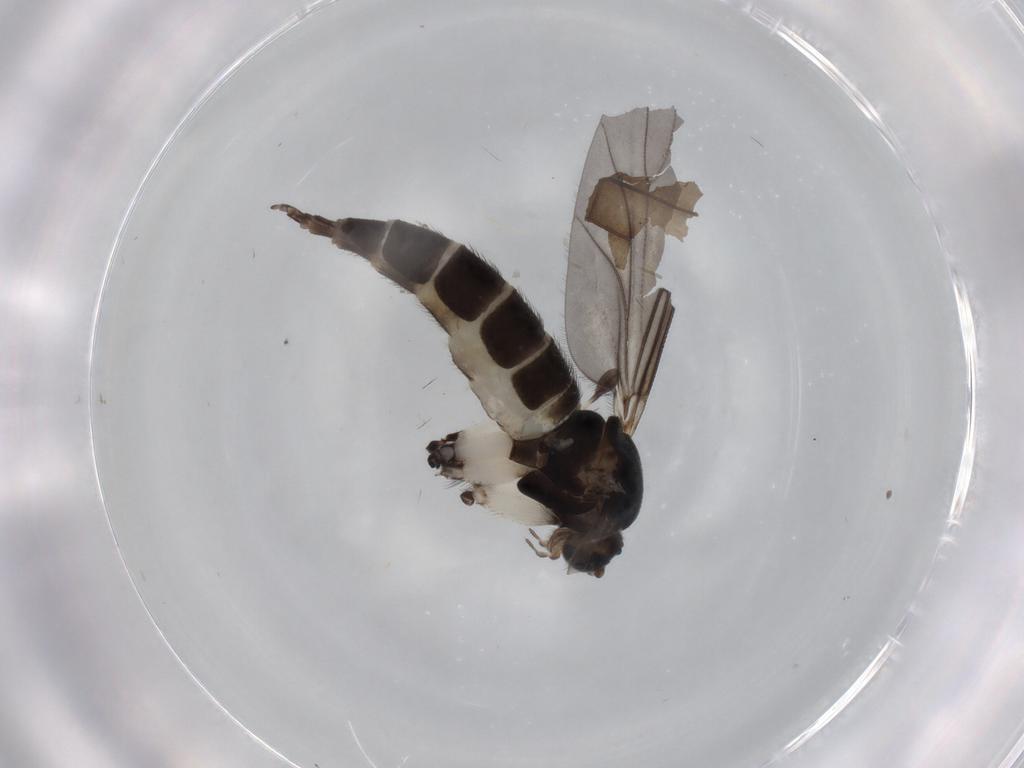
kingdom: Animalia
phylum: Arthropoda
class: Insecta
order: Diptera
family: Sciaridae
